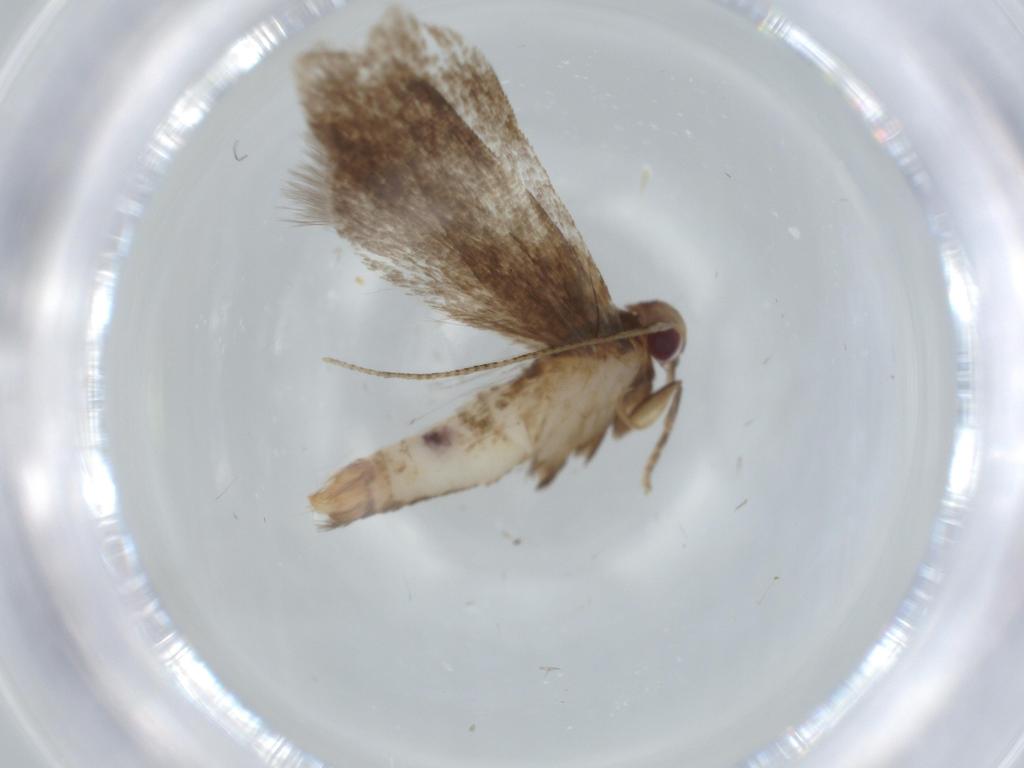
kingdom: Animalia
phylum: Arthropoda
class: Insecta
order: Lepidoptera
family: Gelechiidae
